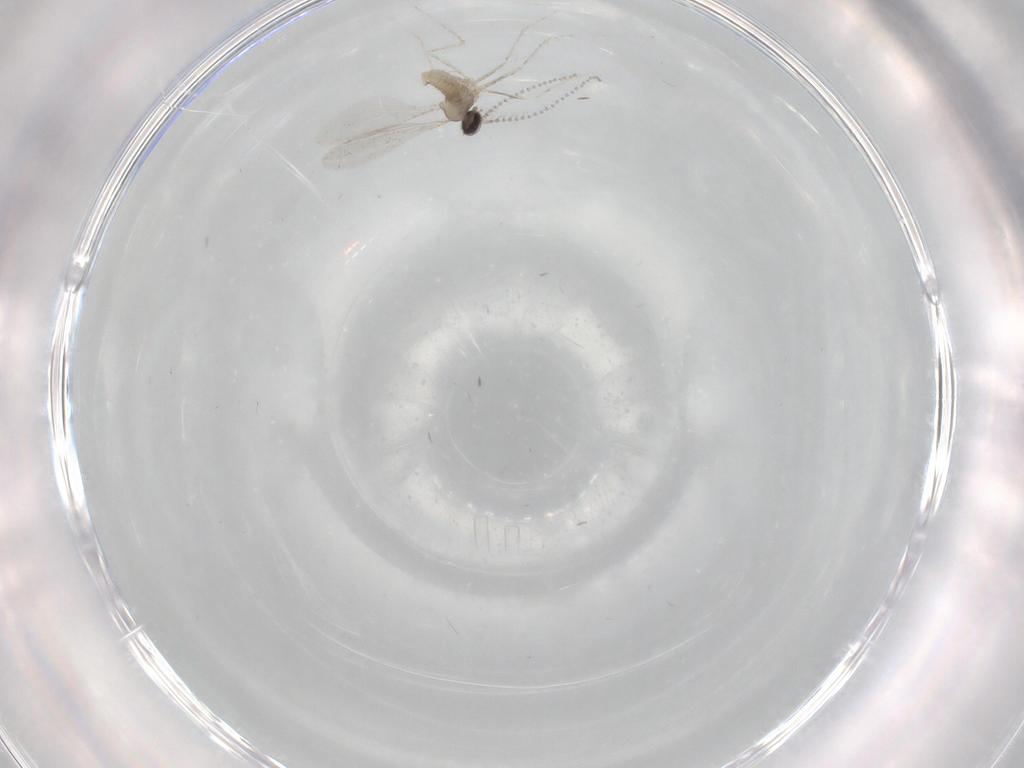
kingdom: Animalia
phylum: Arthropoda
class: Insecta
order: Diptera
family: Cecidomyiidae
